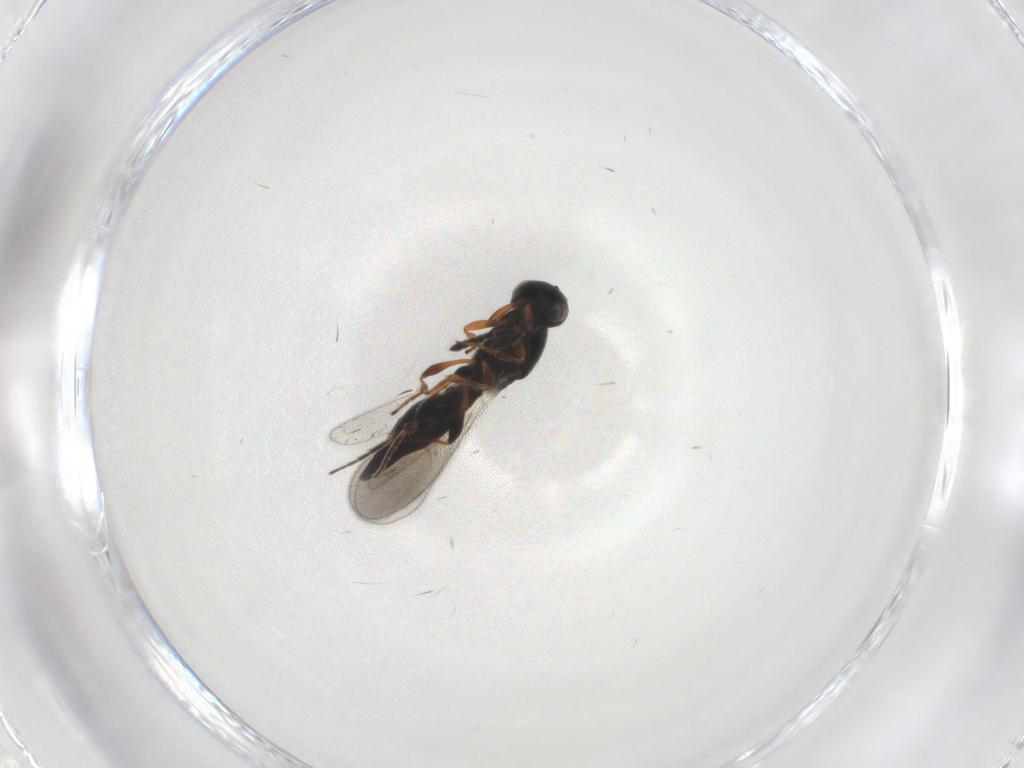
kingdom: Animalia
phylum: Arthropoda
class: Insecta
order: Hymenoptera
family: Platygastridae
